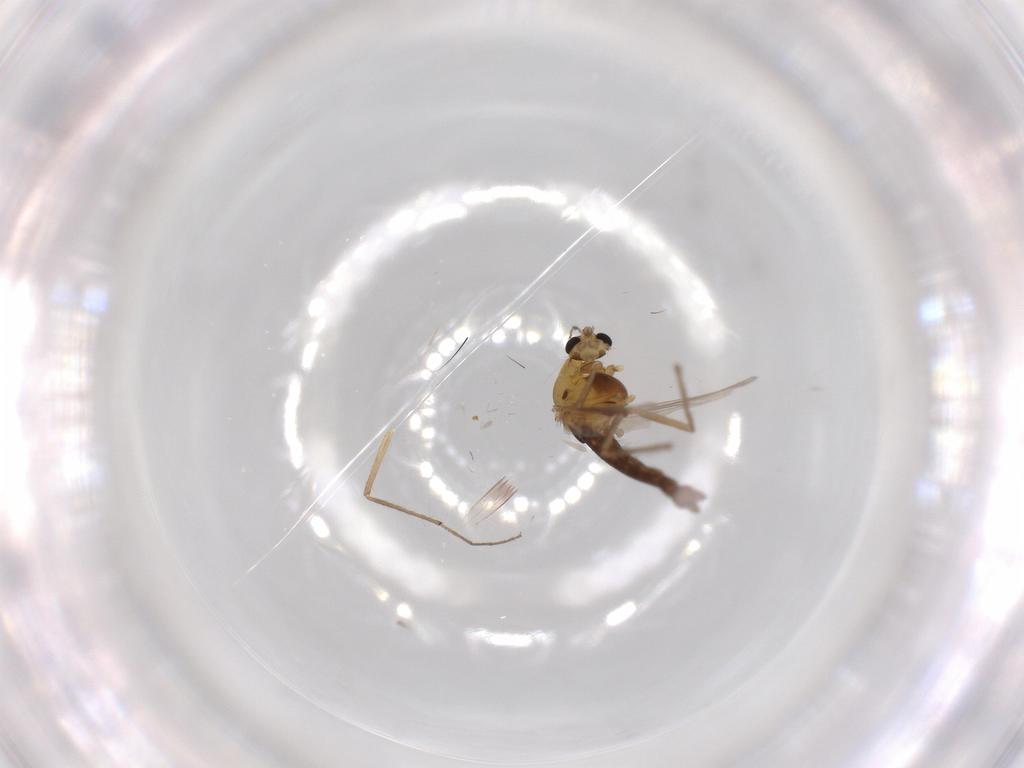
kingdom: Animalia
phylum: Arthropoda
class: Insecta
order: Diptera
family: Chironomidae
